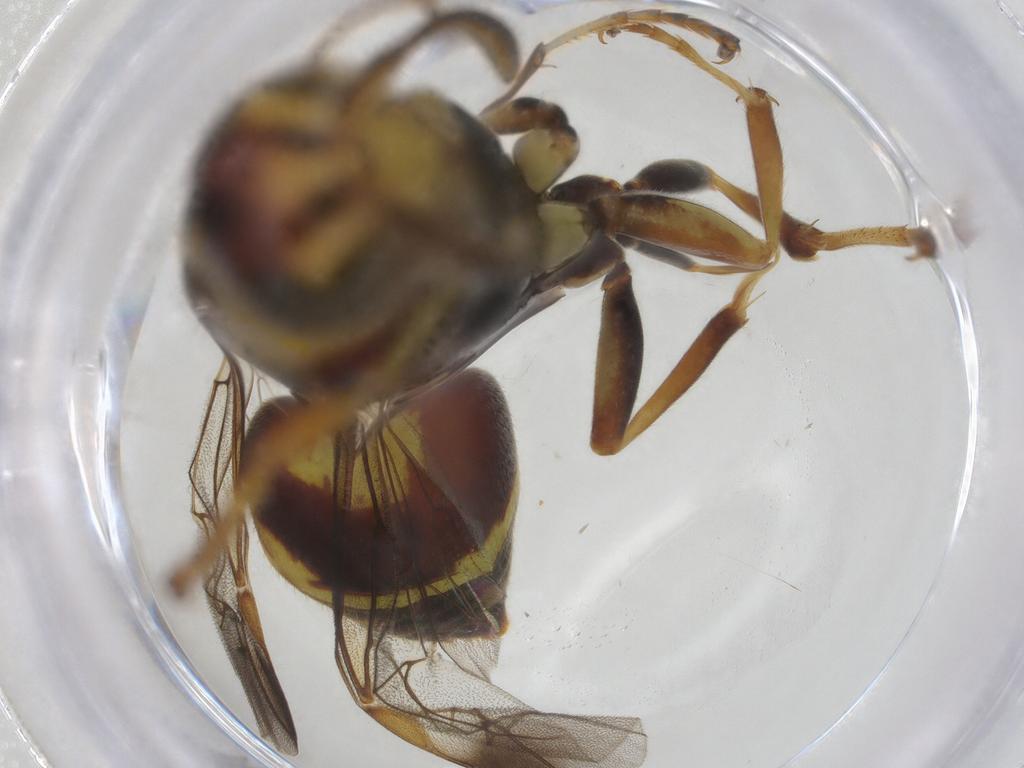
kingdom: Animalia
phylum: Arthropoda
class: Insecta
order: Hymenoptera
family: Vespidae
